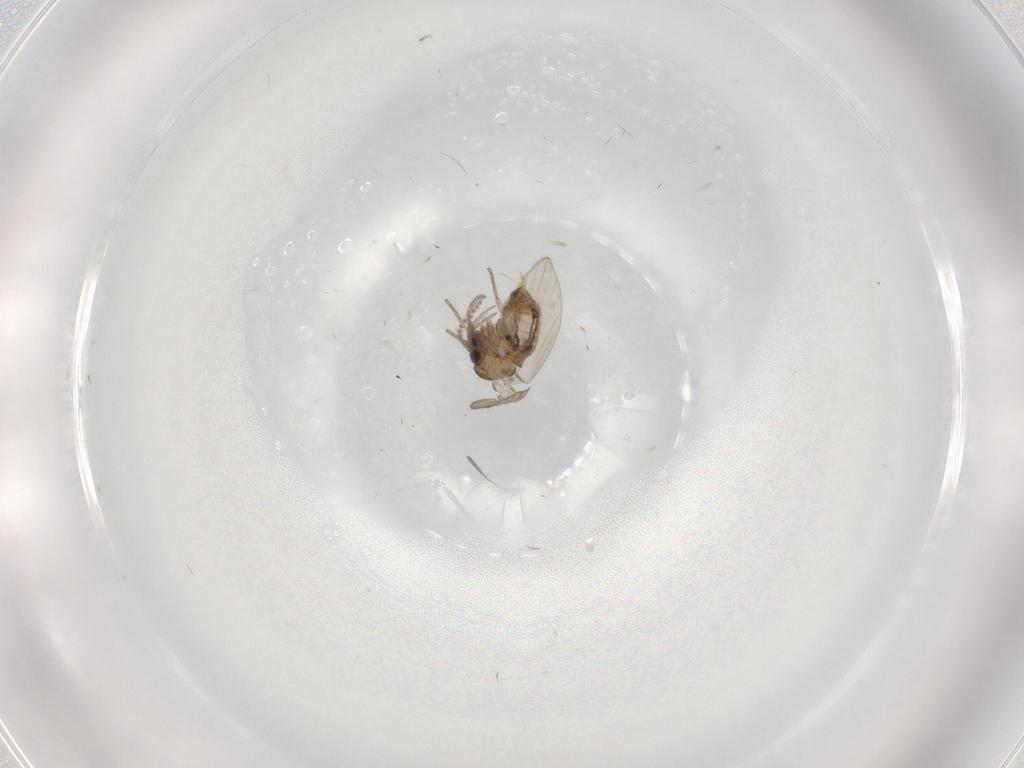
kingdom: Animalia
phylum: Arthropoda
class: Insecta
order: Diptera
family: Psychodidae
